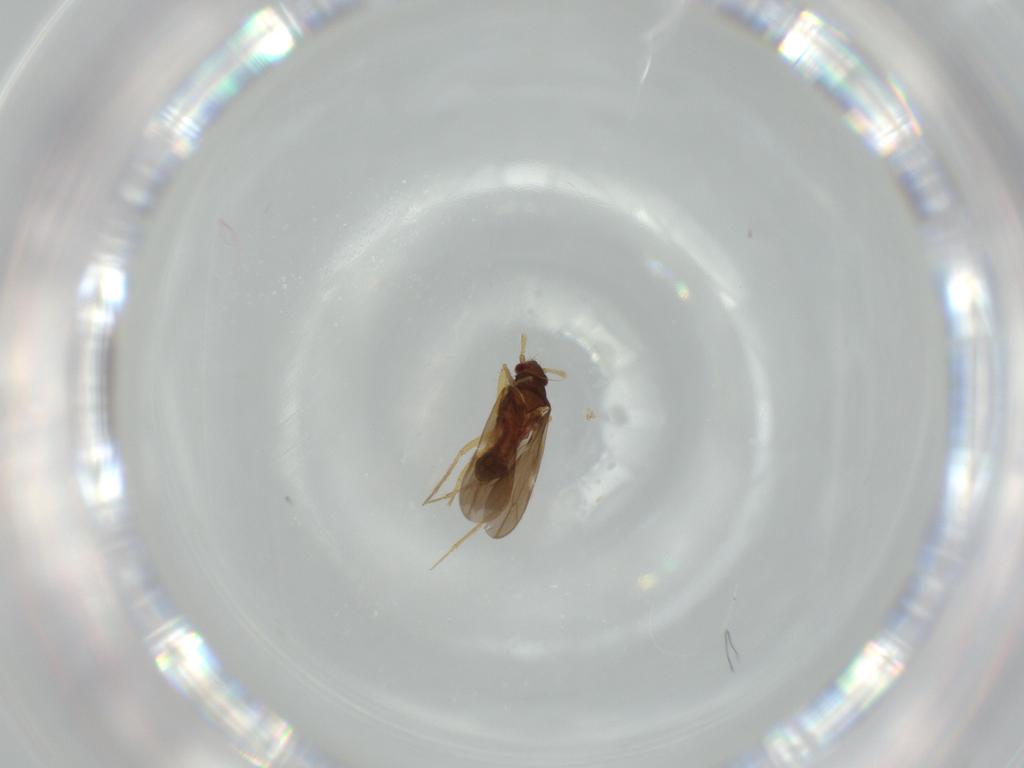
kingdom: Animalia
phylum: Arthropoda
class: Insecta
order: Hemiptera
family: Ceratocombidae
